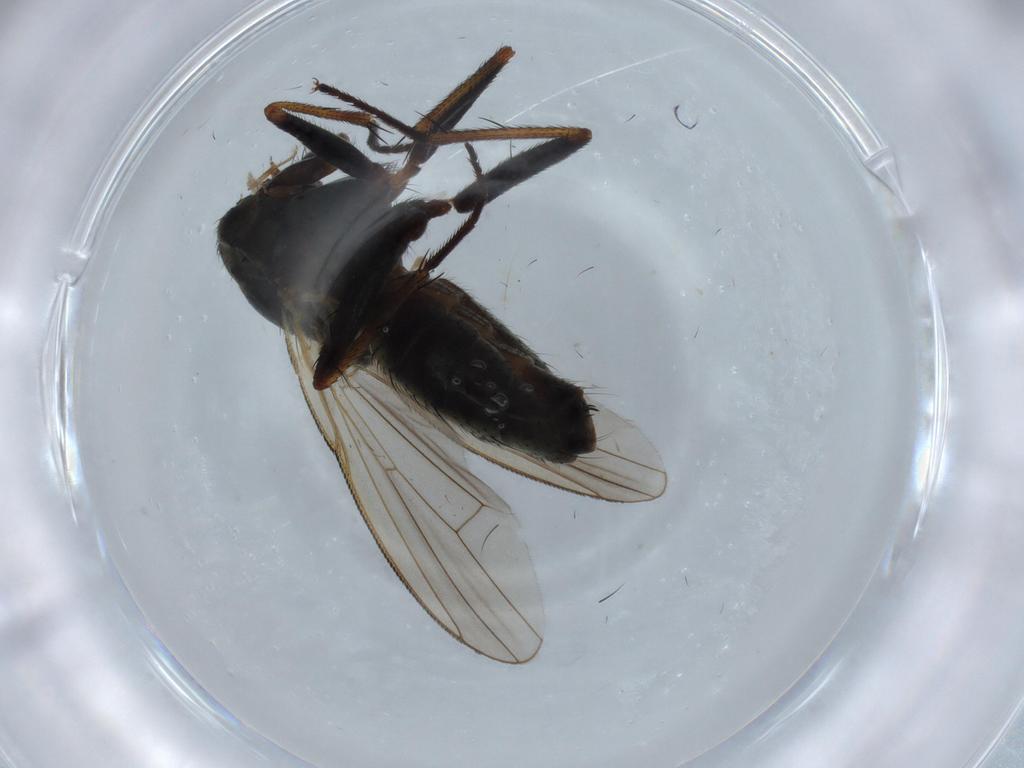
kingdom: Animalia
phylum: Arthropoda
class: Insecta
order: Diptera
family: Muscidae
